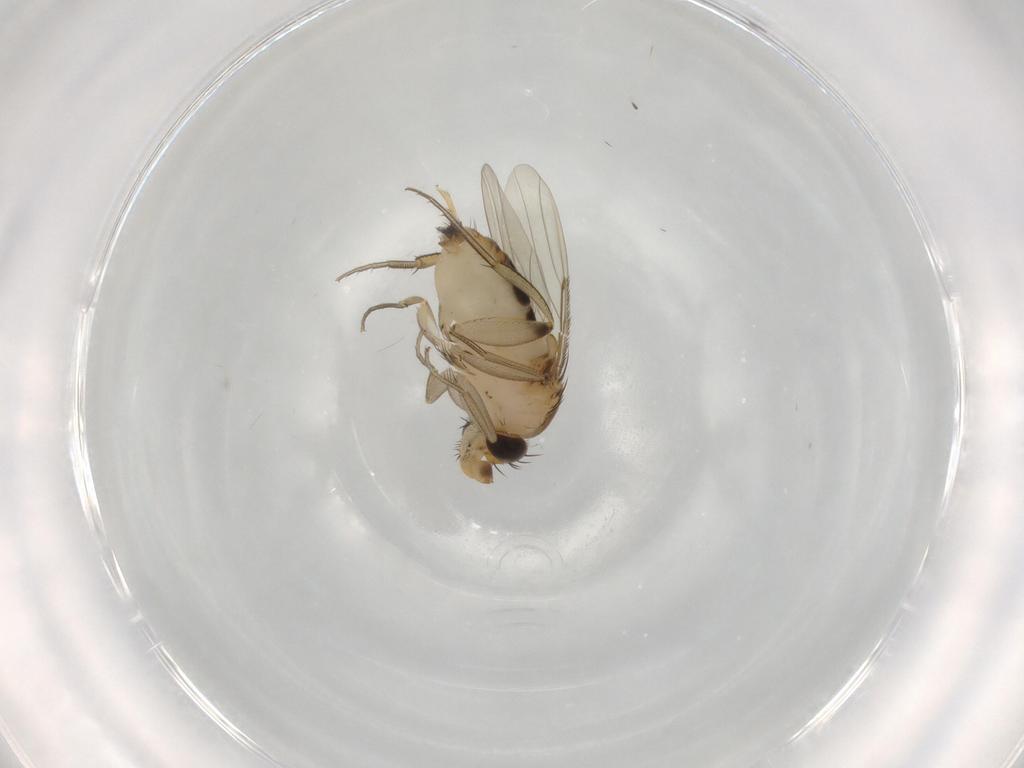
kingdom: Animalia
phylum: Arthropoda
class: Insecta
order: Diptera
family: Phoridae
